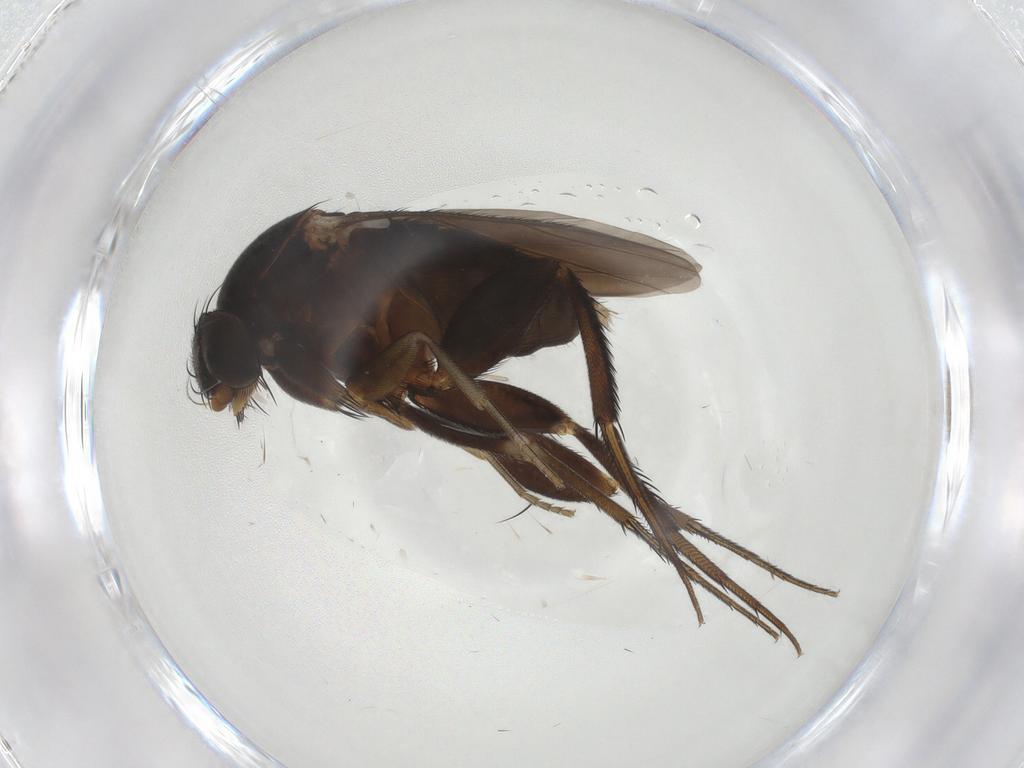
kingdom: Animalia
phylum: Arthropoda
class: Insecta
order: Diptera
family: Phoridae
